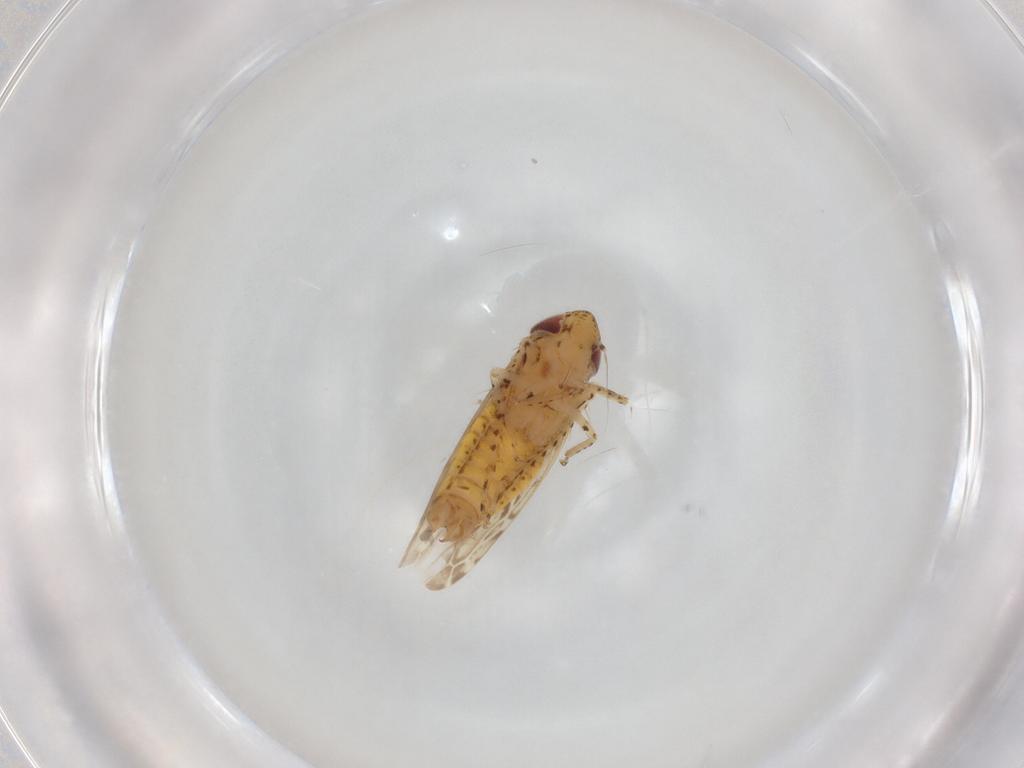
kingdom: Animalia
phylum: Arthropoda
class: Insecta
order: Hemiptera
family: Cicadellidae
